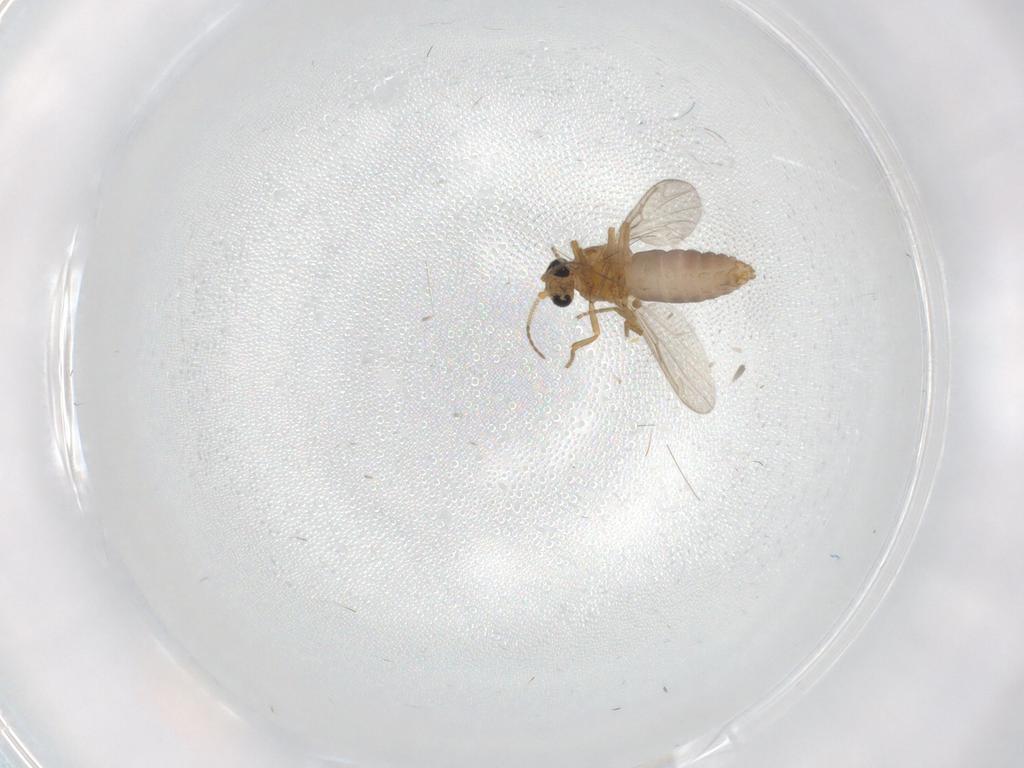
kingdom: Animalia
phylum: Arthropoda
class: Insecta
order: Diptera
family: Ceratopogonidae
